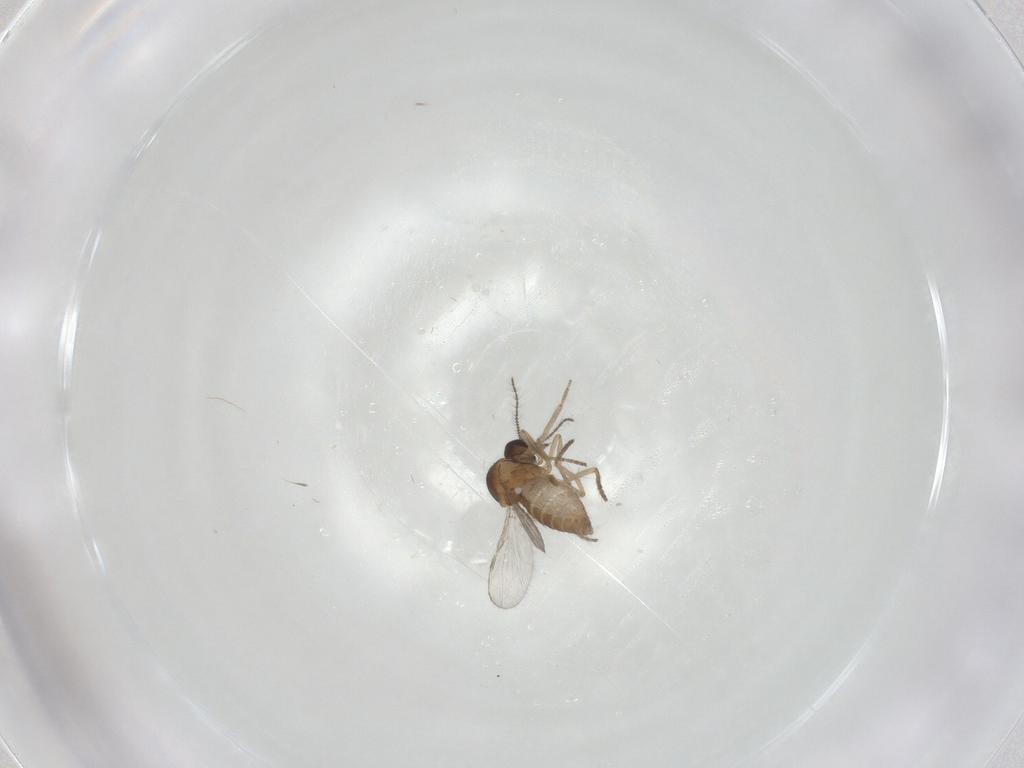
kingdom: Animalia
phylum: Arthropoda
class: Insecta
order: Diptera
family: Ceratopogonidae
